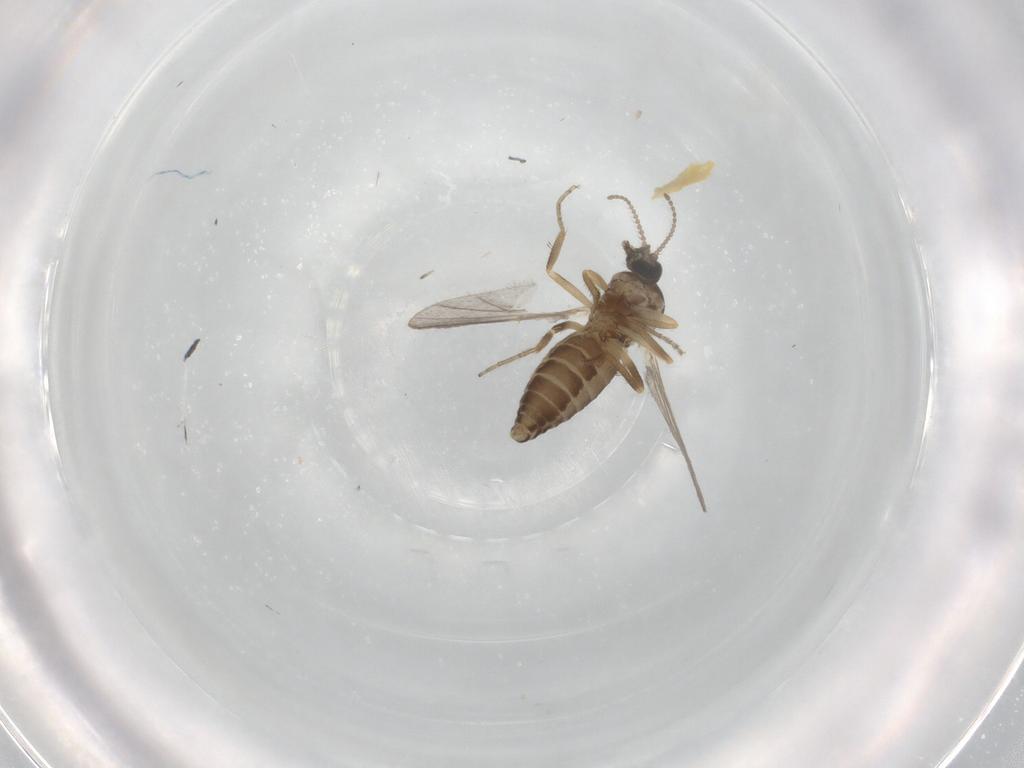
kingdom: Animalia
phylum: Arthropoda
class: Insecta
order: Diptera
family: Ceratopogonidae
